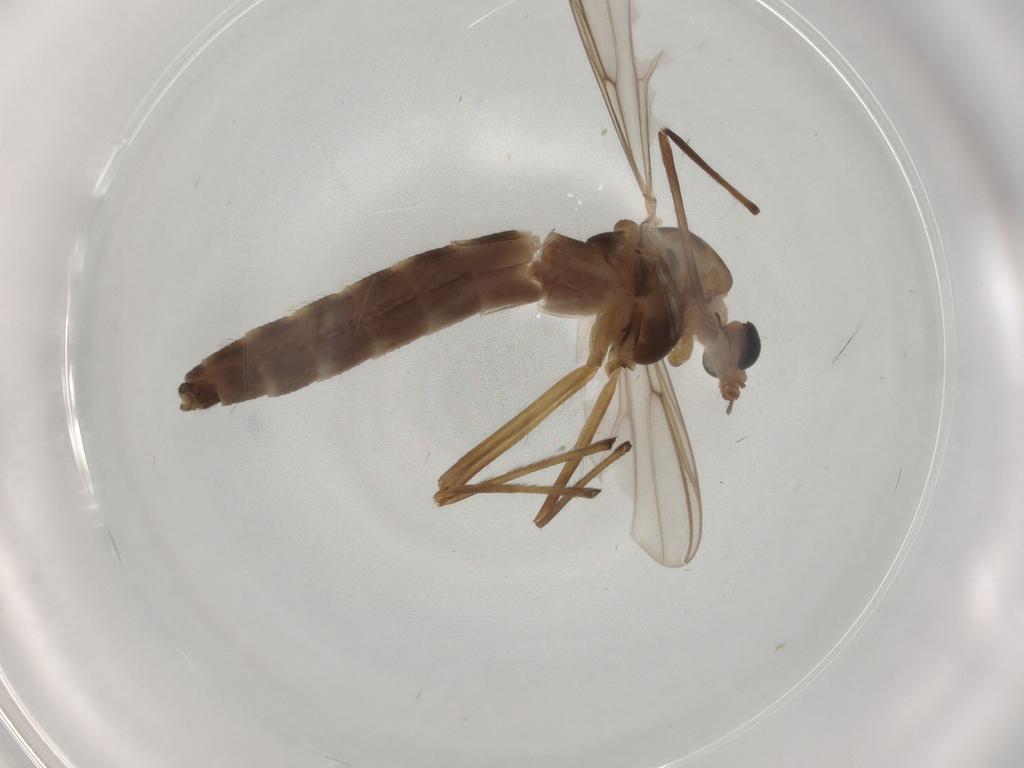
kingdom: Animalia
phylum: Arthropoda
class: Insecta
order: Diptera
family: Chironomidae
